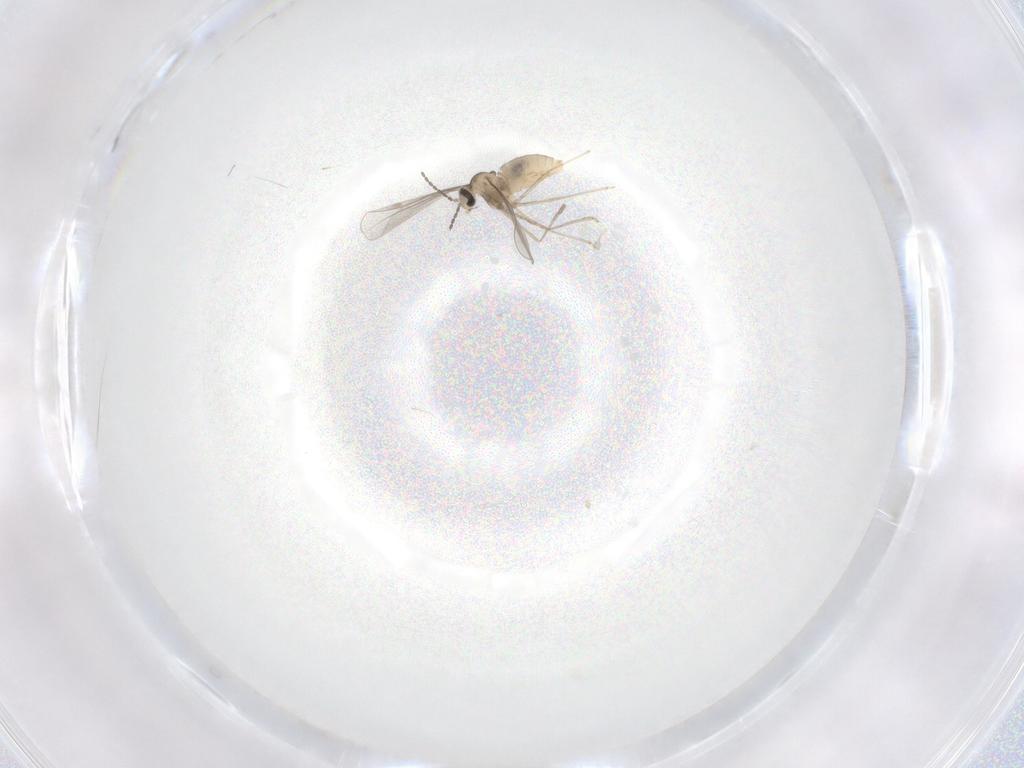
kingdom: Animalia
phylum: Arthropoda
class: Insecta
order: Diptera
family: Cecidomyiidae
